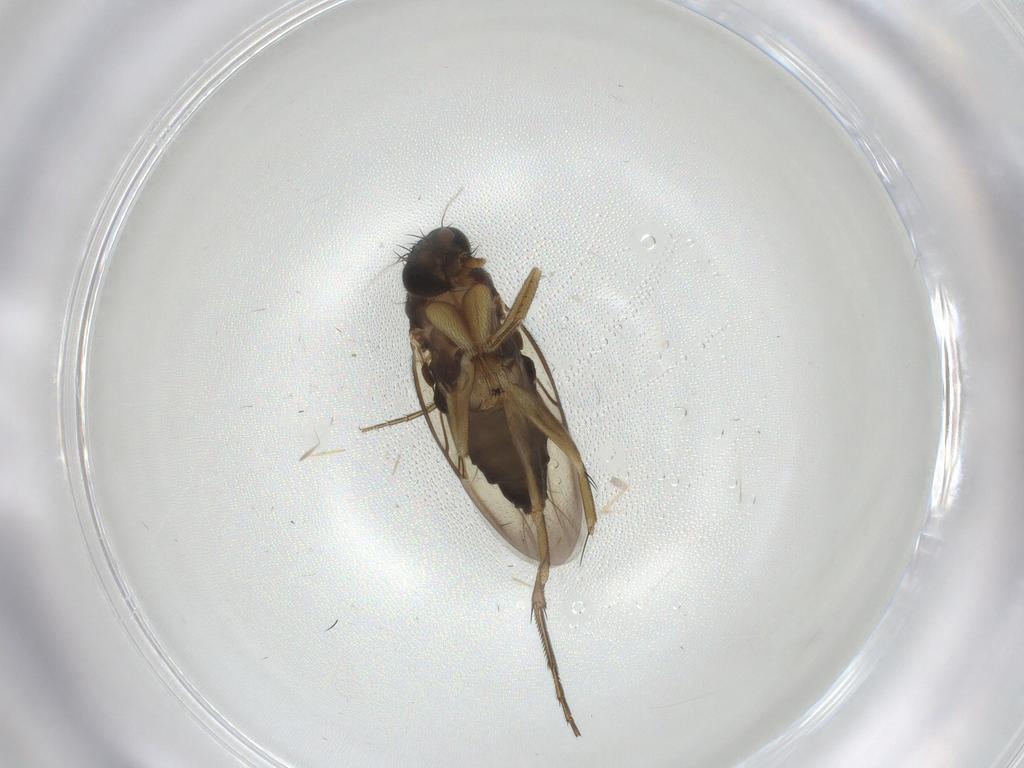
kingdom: Animalia
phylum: Arthropoda
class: Insecta
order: Diptera
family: Phoridae
